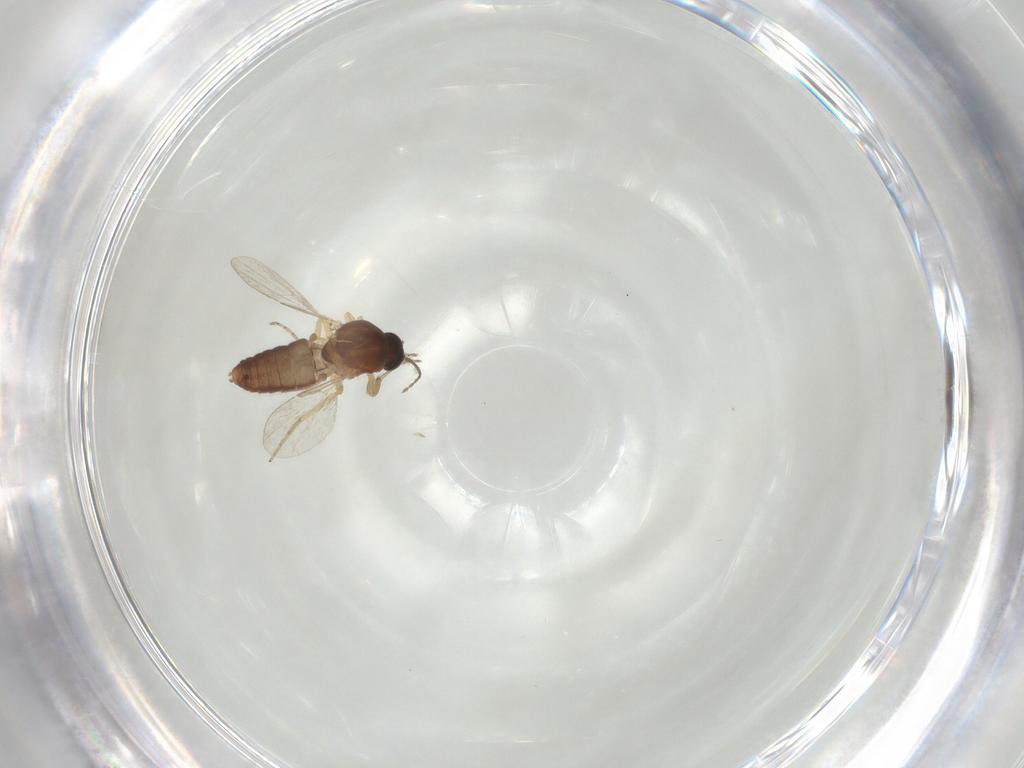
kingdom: Animalia
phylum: Arthropoda
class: Insecta
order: Diptera
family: Ceratopogonidae
